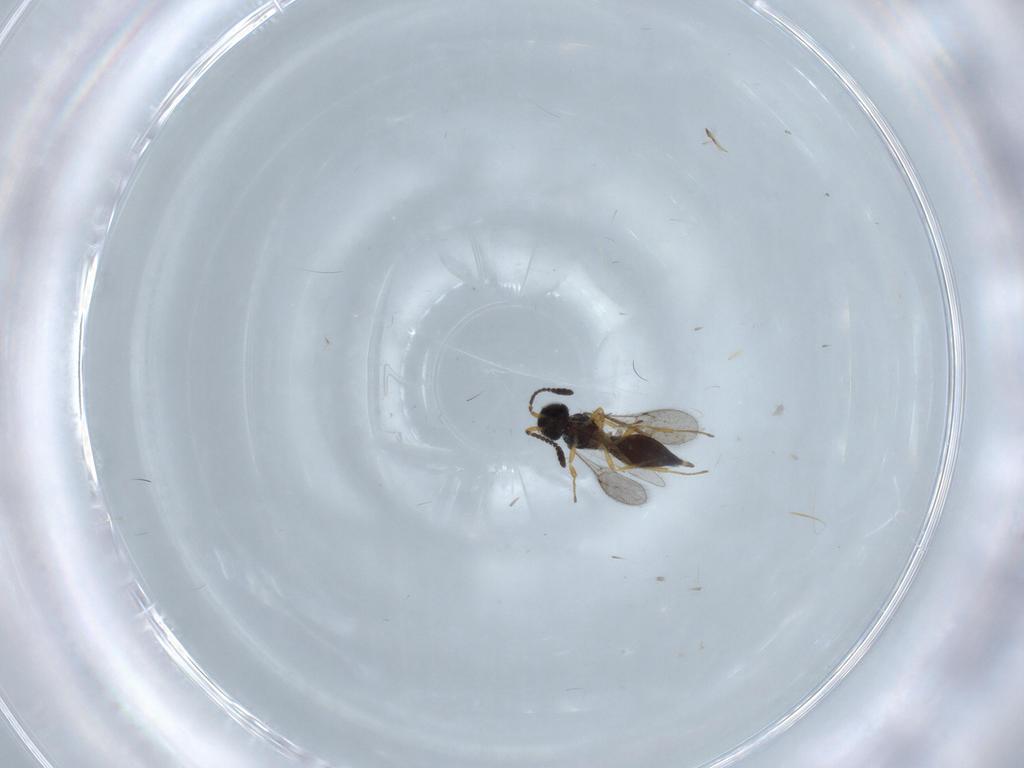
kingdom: Animalia
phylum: Arthropoda
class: Insecta
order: Hymenoptera
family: Scelionidae
